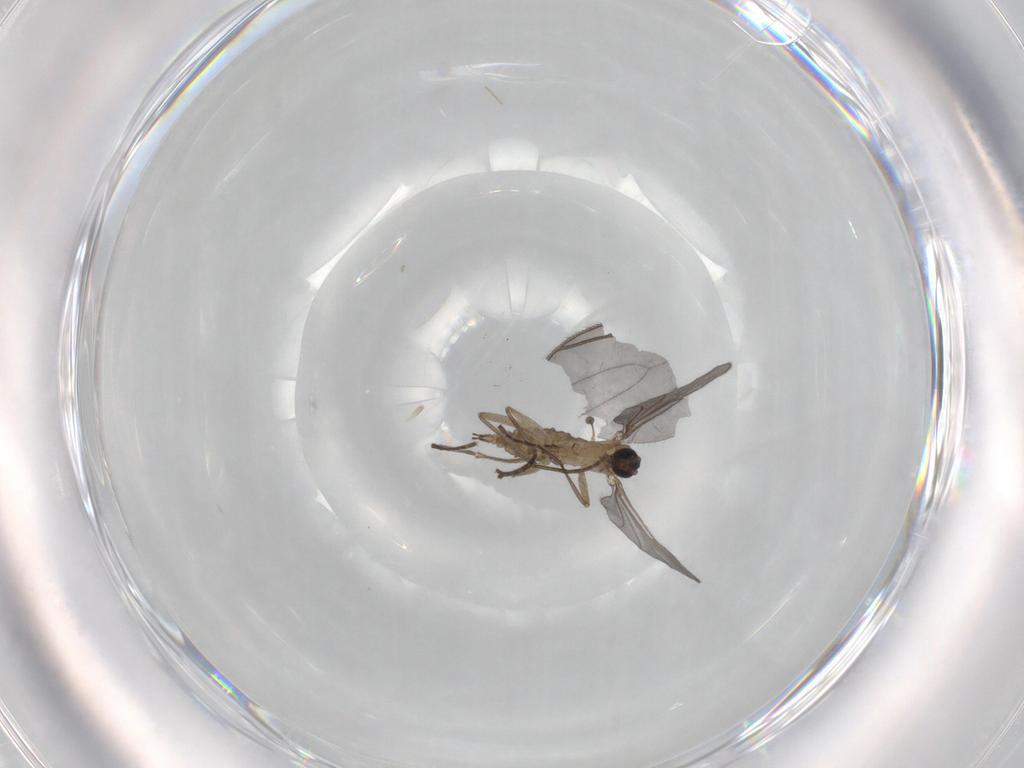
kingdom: Animalia
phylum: Arthropoda
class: Insecta
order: Diptera
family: Sciaridae
